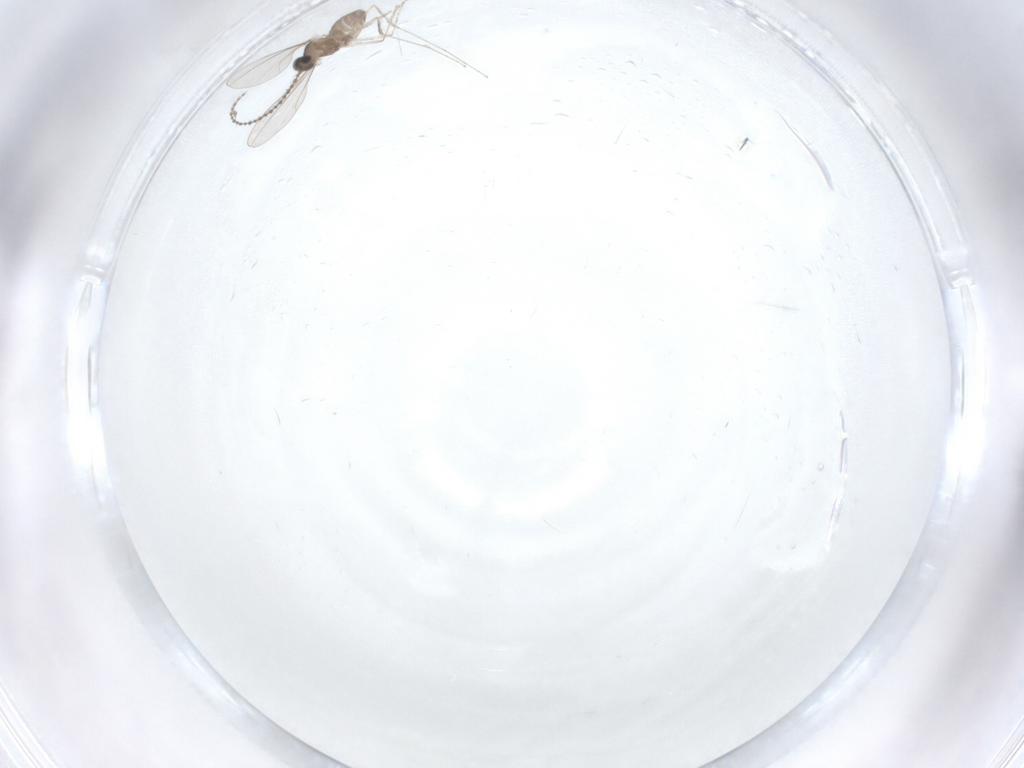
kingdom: Animalia
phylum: Arthropoda
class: Insecta
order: Diptera
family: Cecidomyiidae
